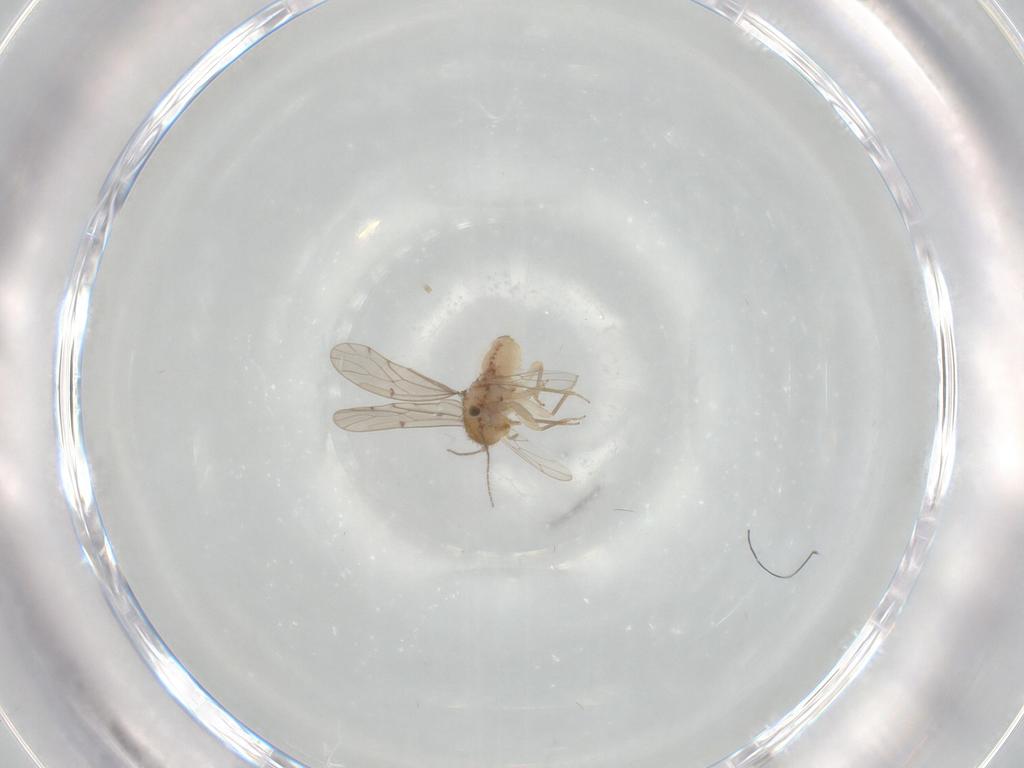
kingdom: Animalia
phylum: Arthropoda
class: Insecta
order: Psocodea
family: Ectopsocidae
